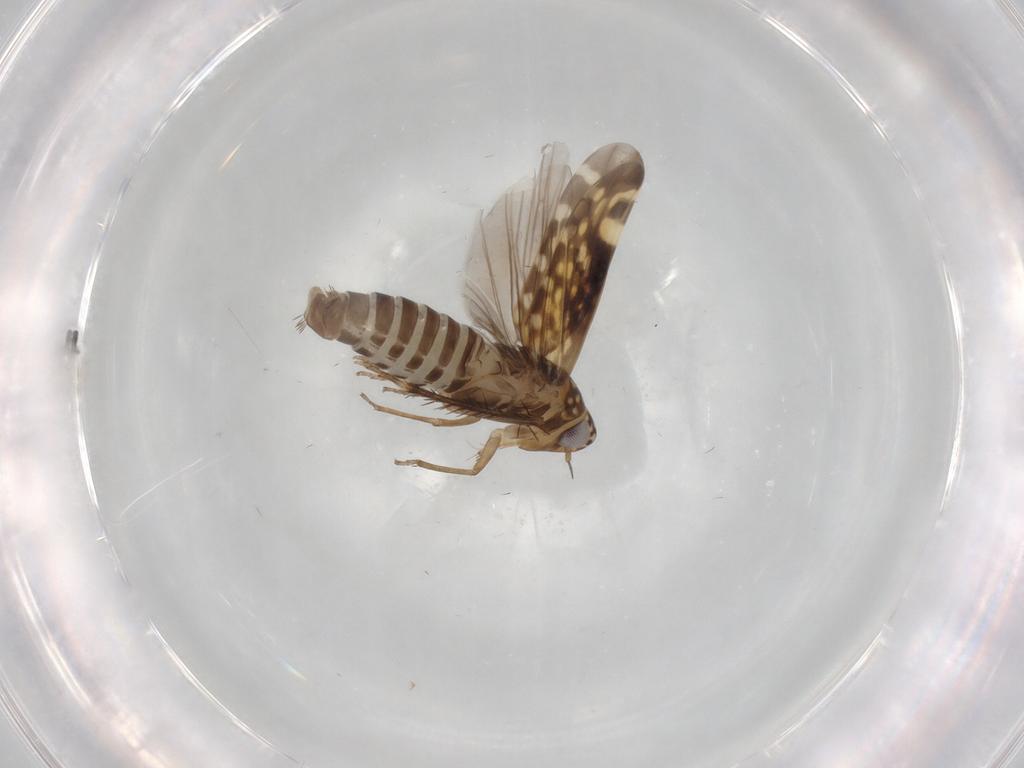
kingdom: Animalia
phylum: Arthropoda
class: Insecta
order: Hemiptera
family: Cicadellidae
